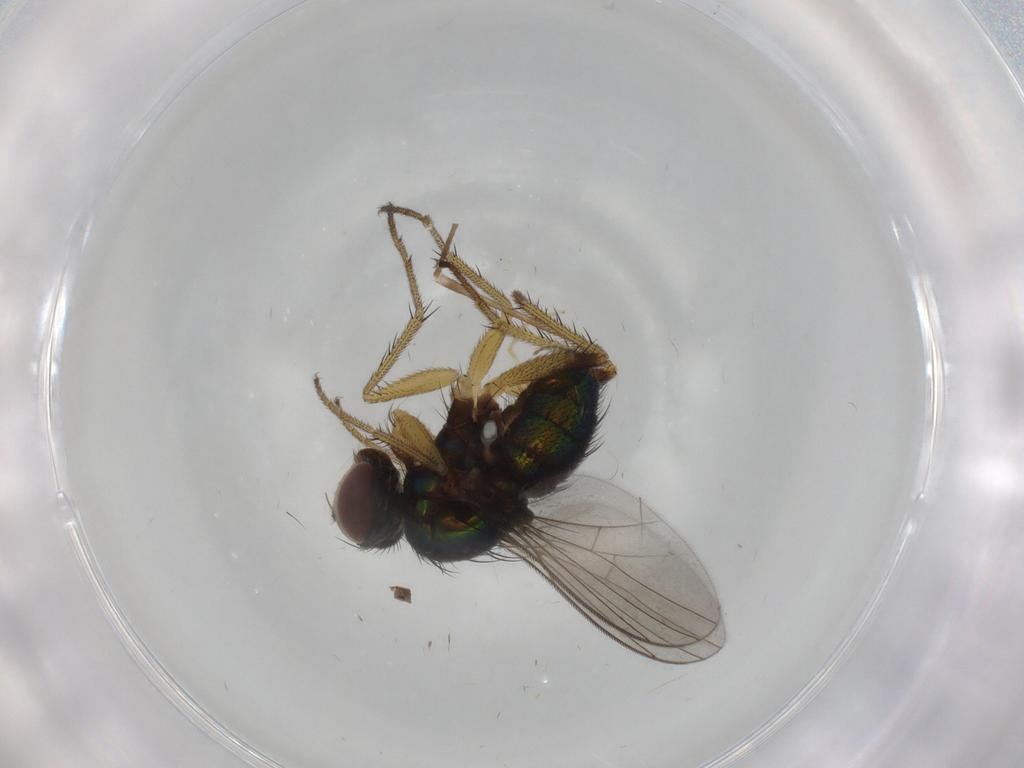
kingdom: Animalia
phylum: Arthropoda
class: Insecta
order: Diptera
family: Dolichopodidae
